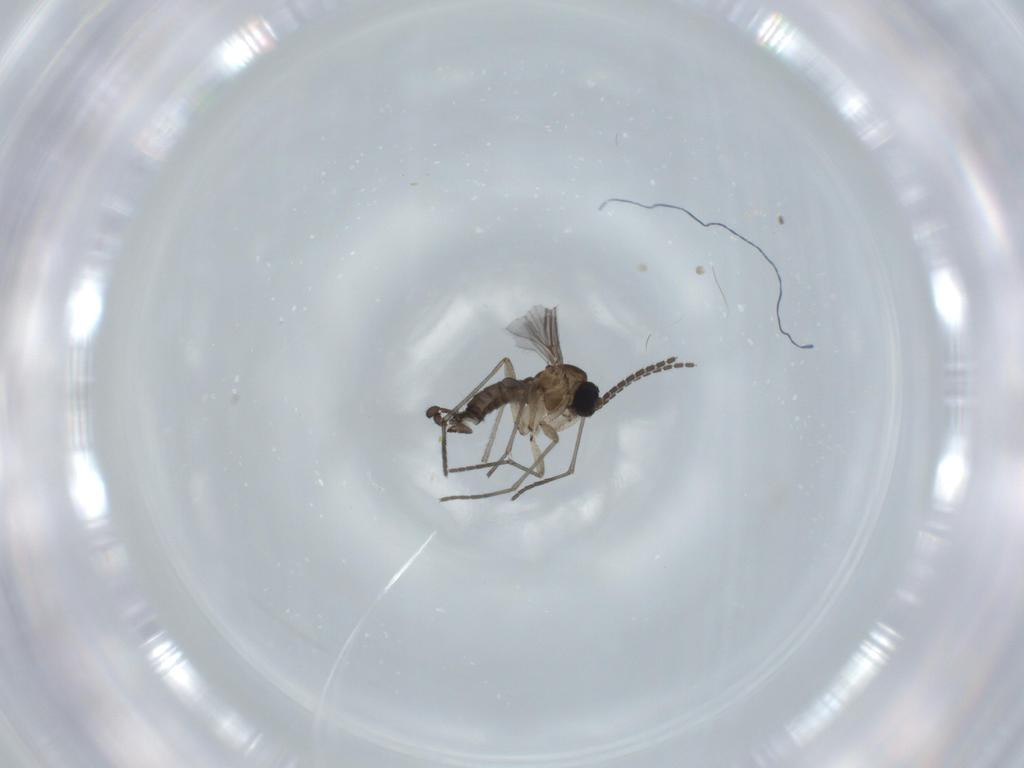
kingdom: Animalia
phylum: Arthropoda
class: Insecta
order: Diptera
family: Sciaridae
